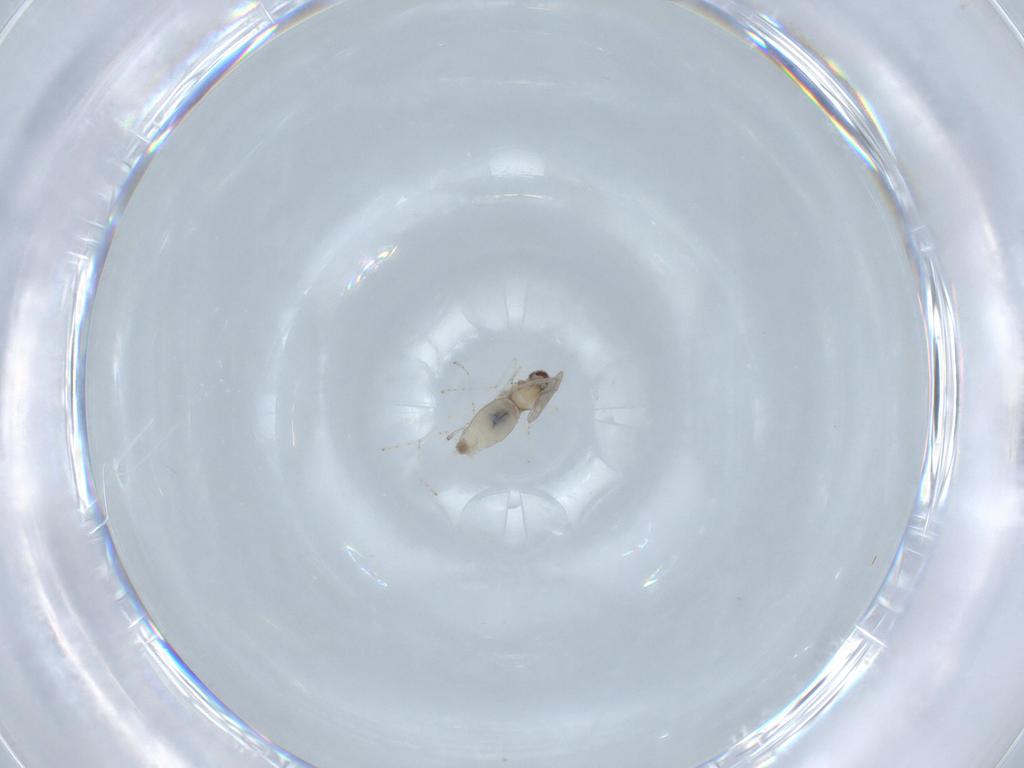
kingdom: Animalia
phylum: Arthropoda
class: Insecta
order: Diptera
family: Cecidomyiidae
